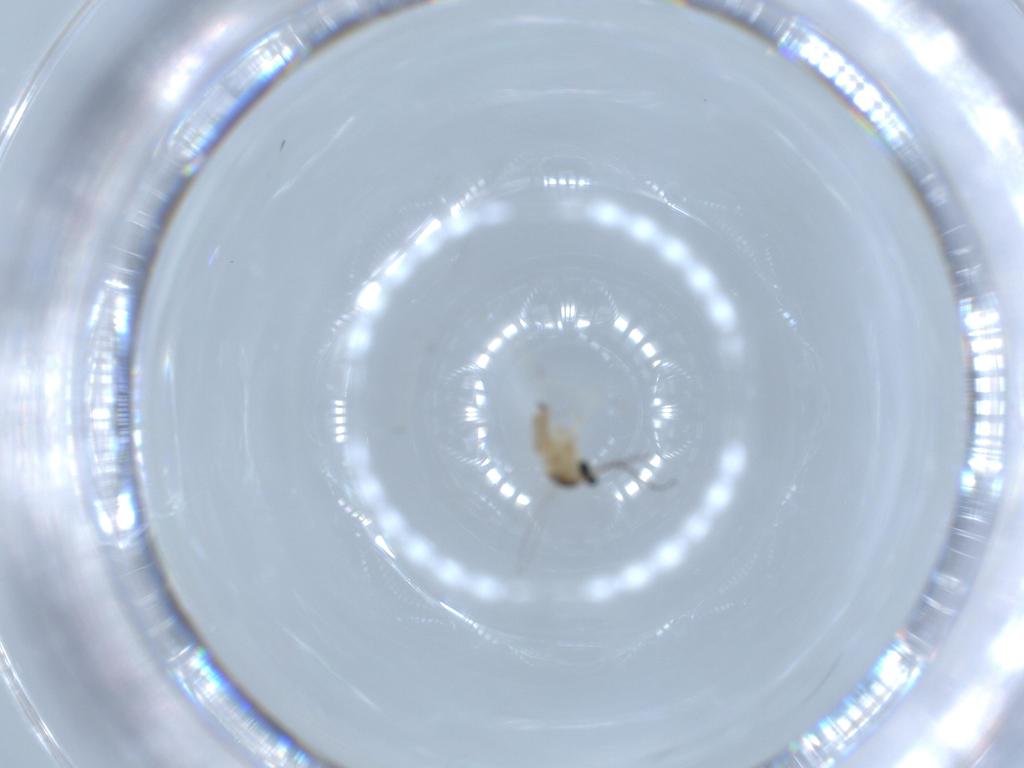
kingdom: Animalia
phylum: Arthropoda
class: Insecta
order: Diptera
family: Cecidomyiidae
